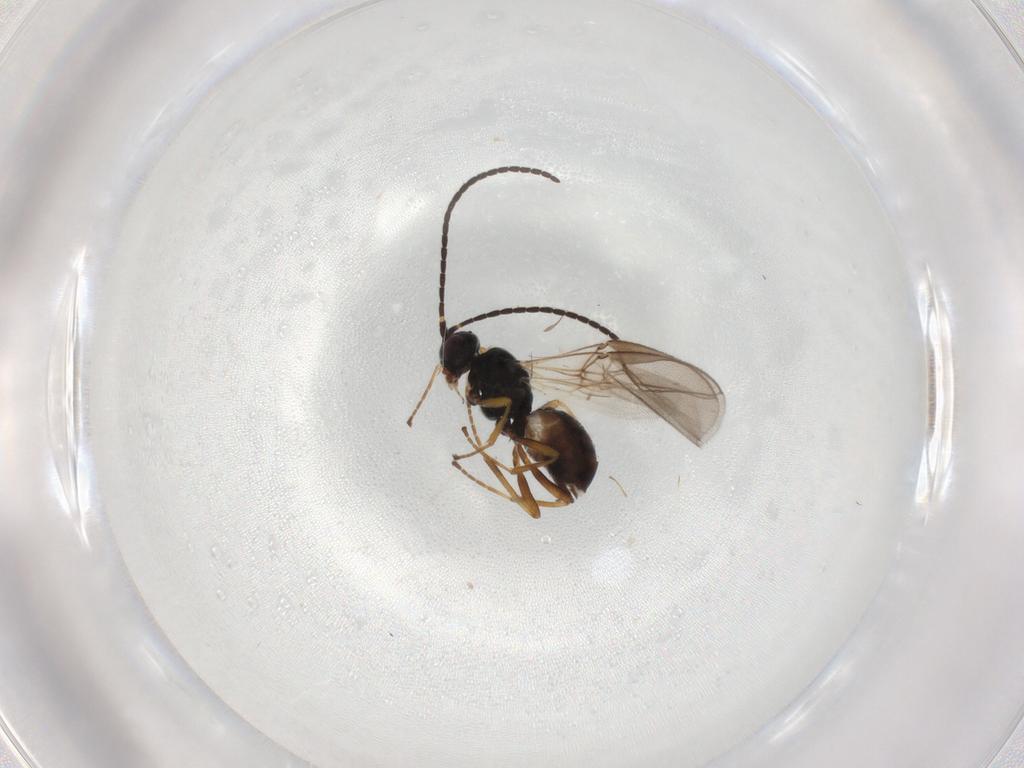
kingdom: Animalia
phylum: Arthropoda
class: Insecta
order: Hymenoptera
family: Braconidae
